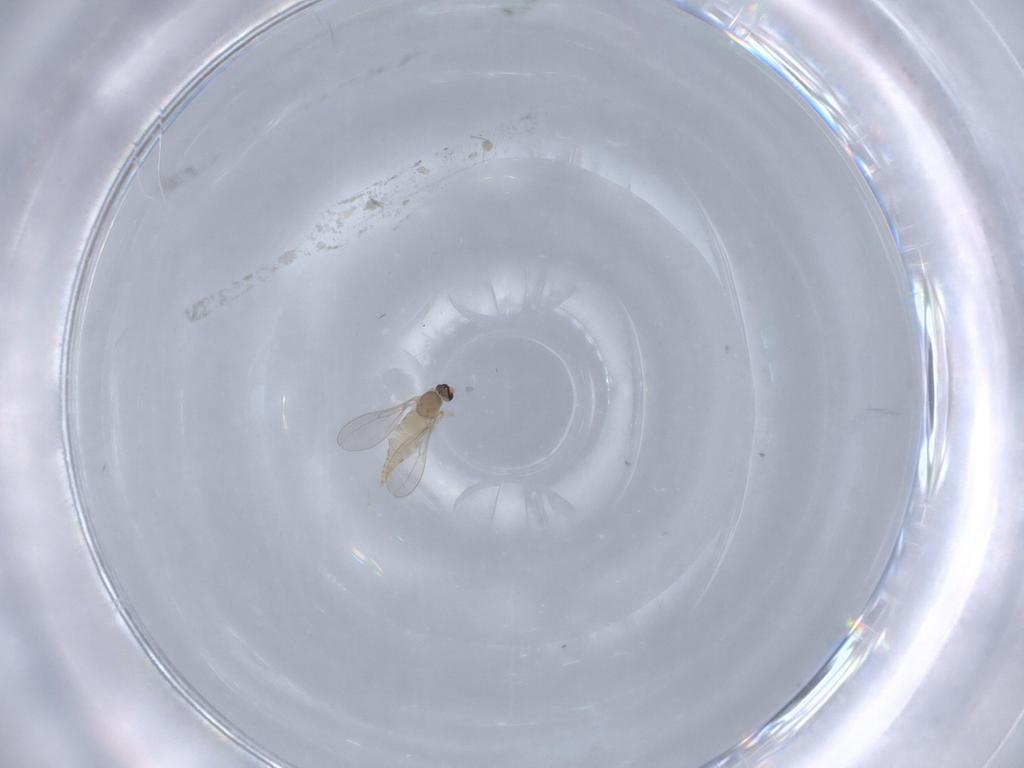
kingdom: Animalia
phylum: Arthropoda
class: Insecta
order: Diptera
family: Cecidomyiidae
